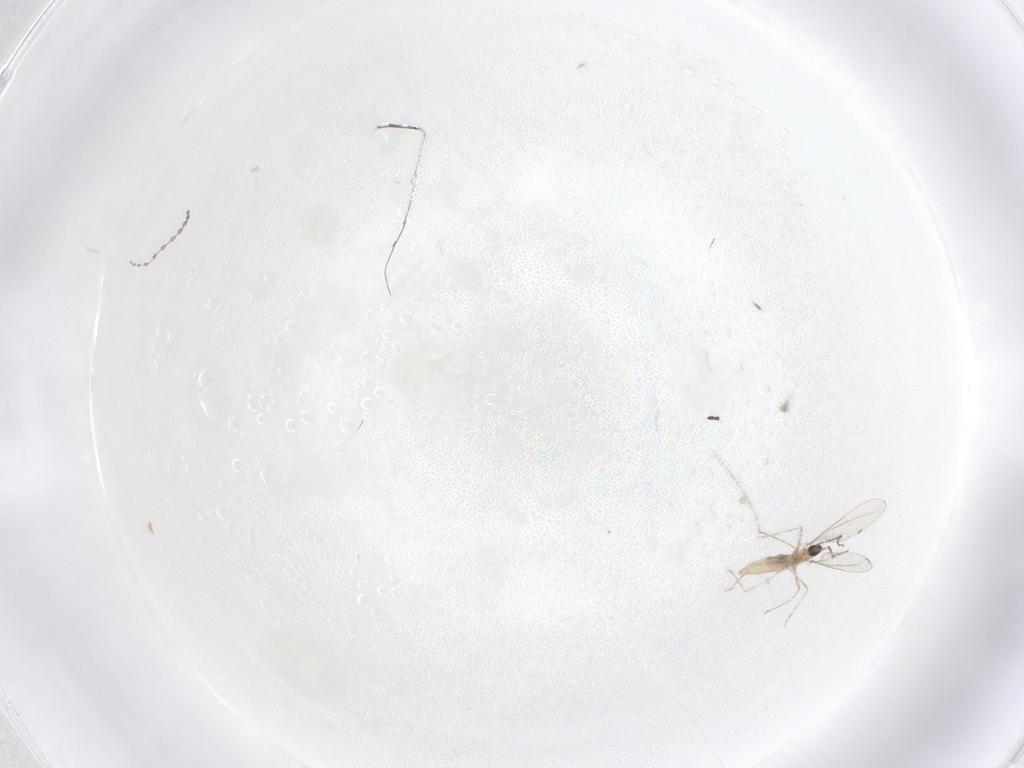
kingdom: Animalia
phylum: Arthropoda
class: Insecta
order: Diptera
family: Cecidomyiidae
